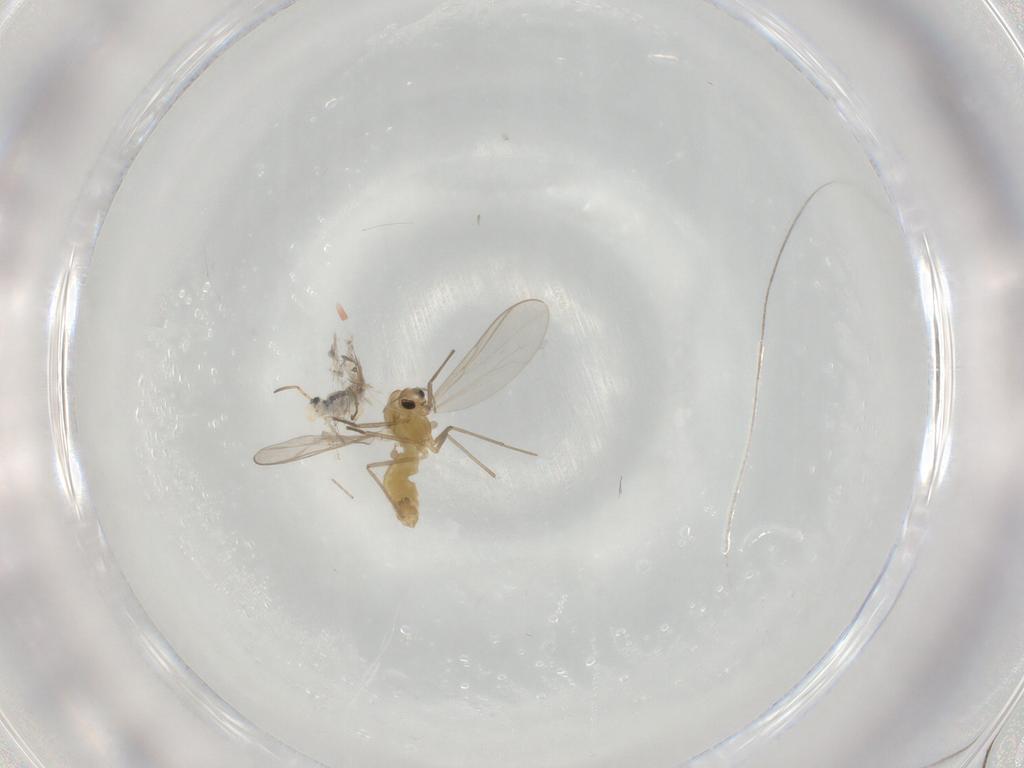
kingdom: Animalia
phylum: Arthropoda
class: Insecta
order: Diptera
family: Chironomidae
